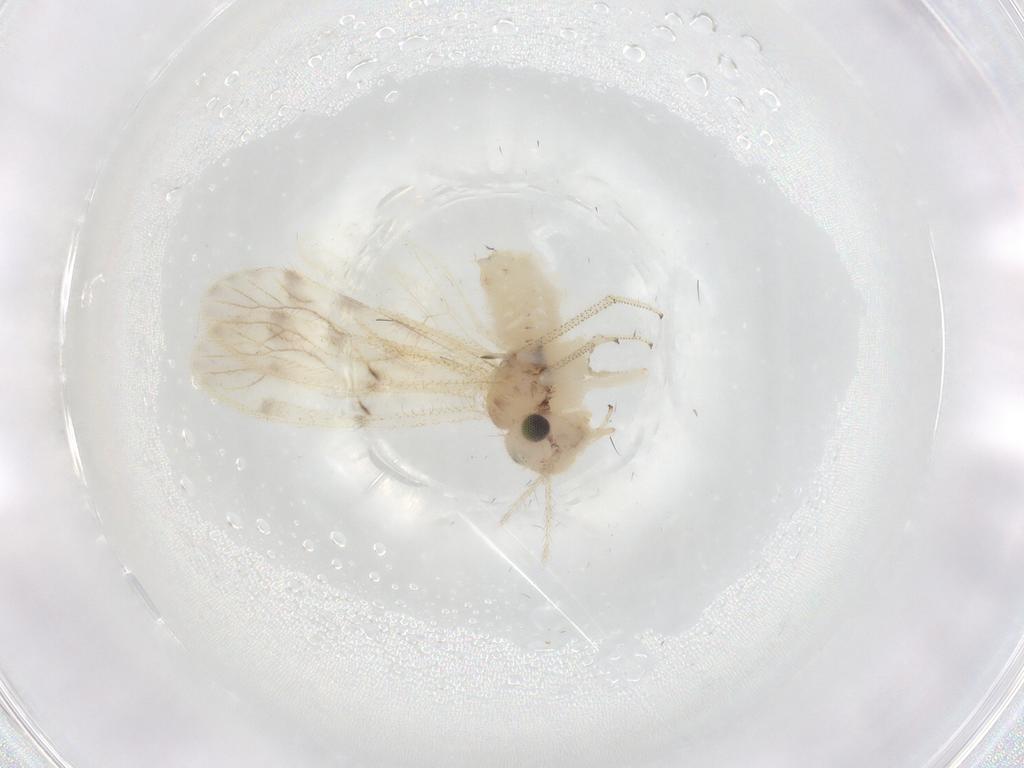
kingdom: Animalia
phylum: Arthropoda
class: Insecta
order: Psocodea
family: Pseudocaeciliidae
